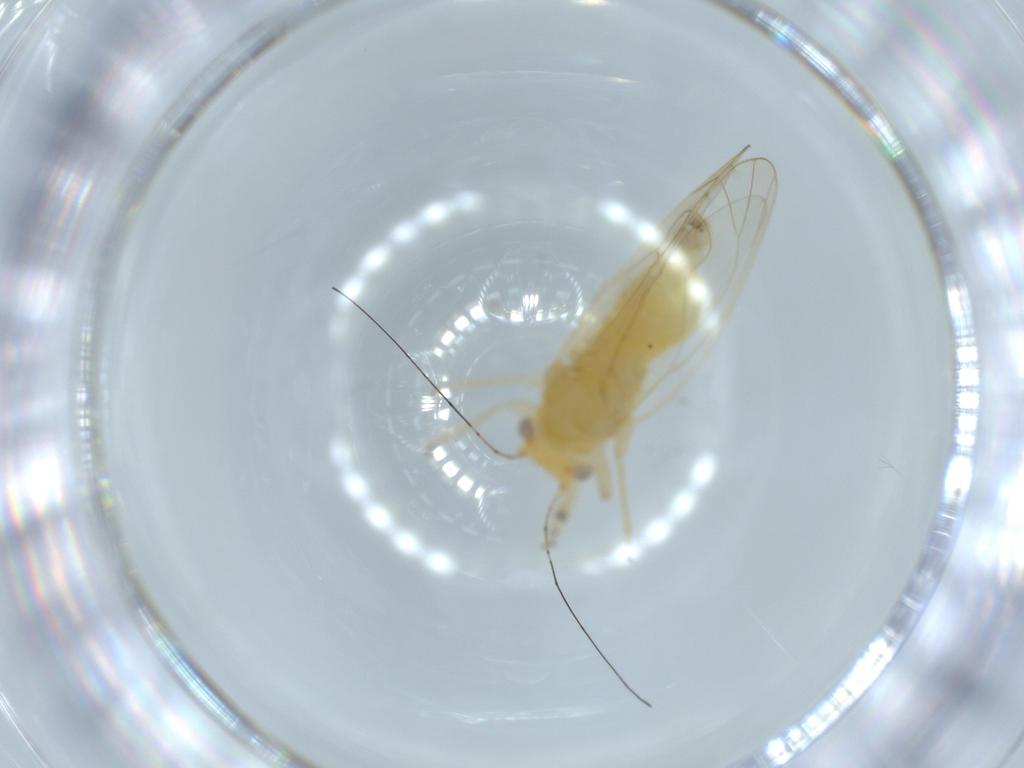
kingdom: Animalia
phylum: Arthropoda
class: Insecta
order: Hemiptera
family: Psyllidae
